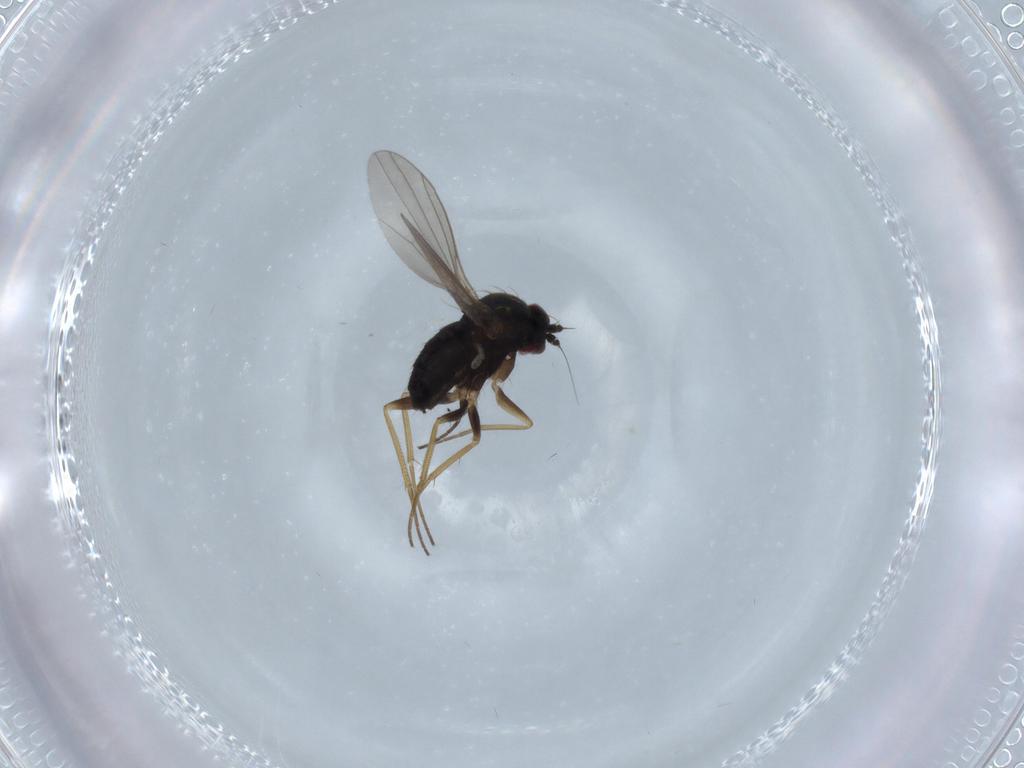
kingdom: Animalia
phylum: Arthropoda
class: Insecta
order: Diptera
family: Dolichopodidae
